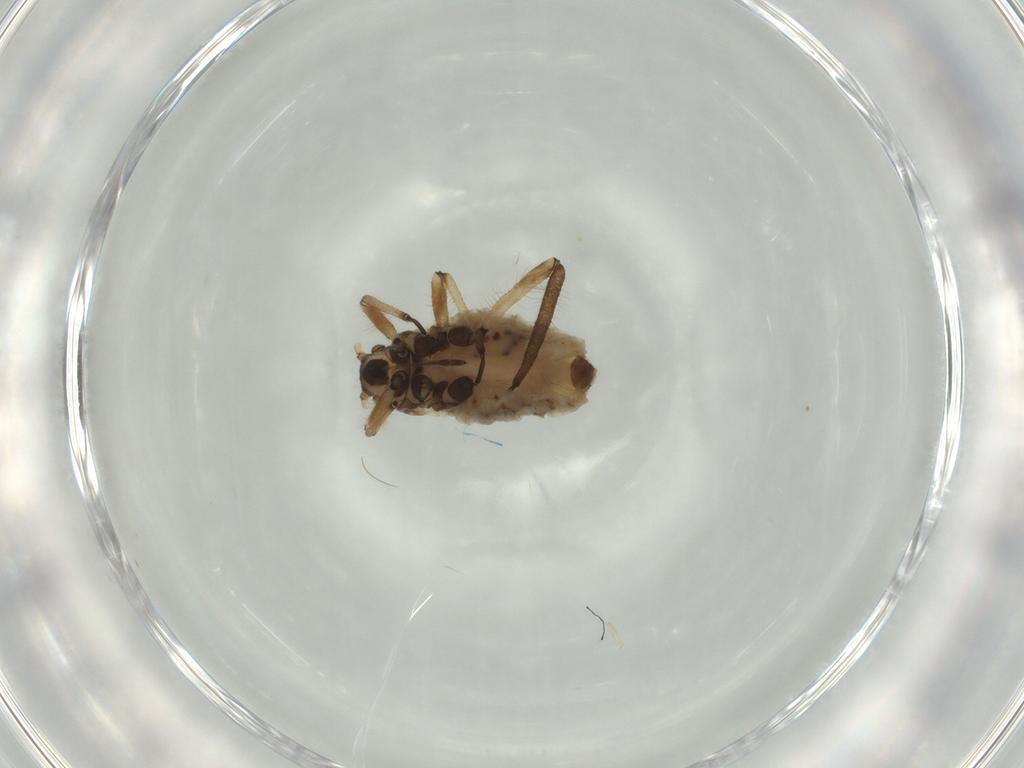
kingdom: Animalia
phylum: Arthropoda
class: Insecta
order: Hemiptera
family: Aphididae
